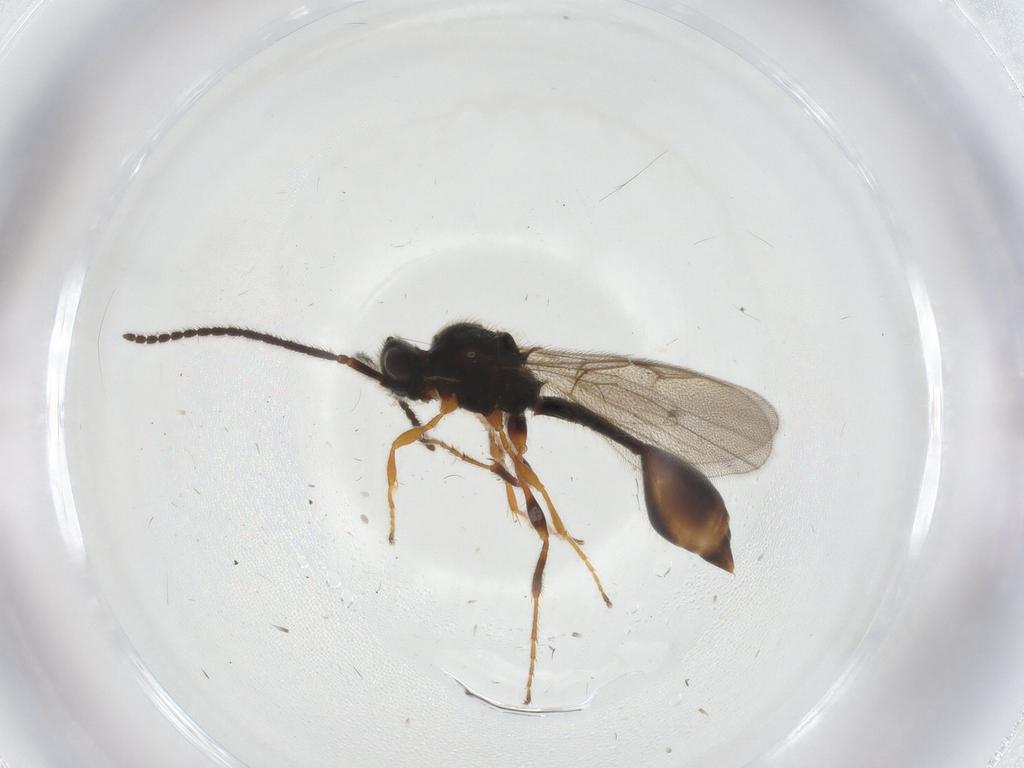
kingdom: Animalia
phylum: Arthropoda
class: Insecta
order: Hymenoptera
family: Diapriidae
